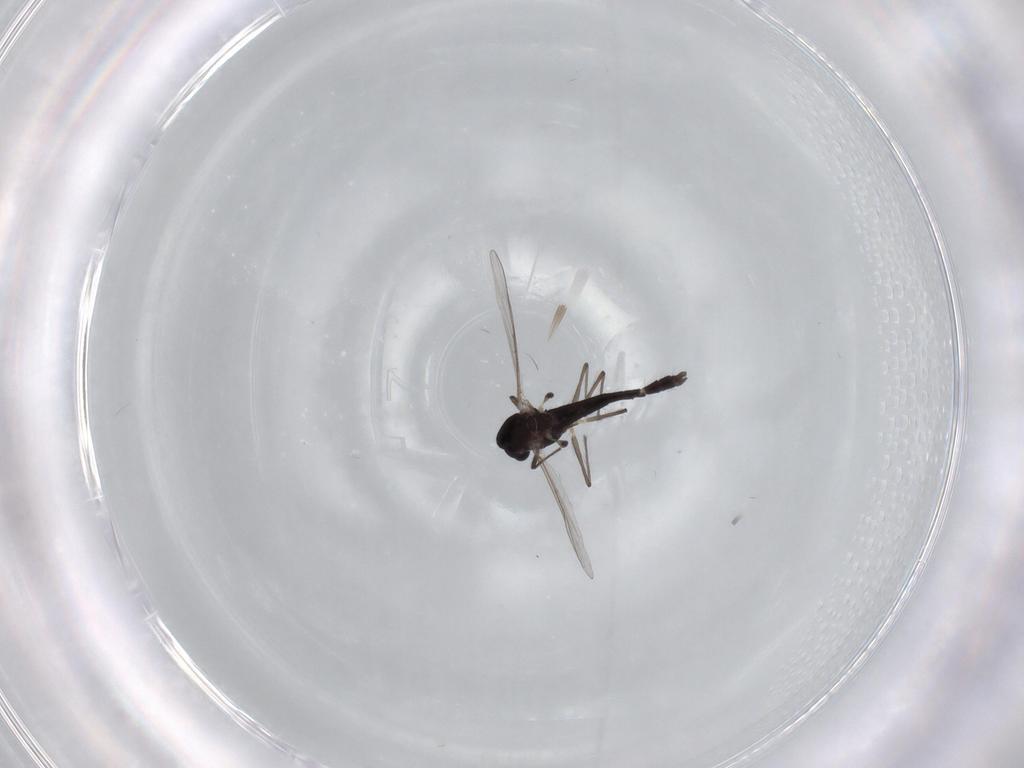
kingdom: Animalia
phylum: Arthropoda
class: Insecta
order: Diptera
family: Chironomidae
